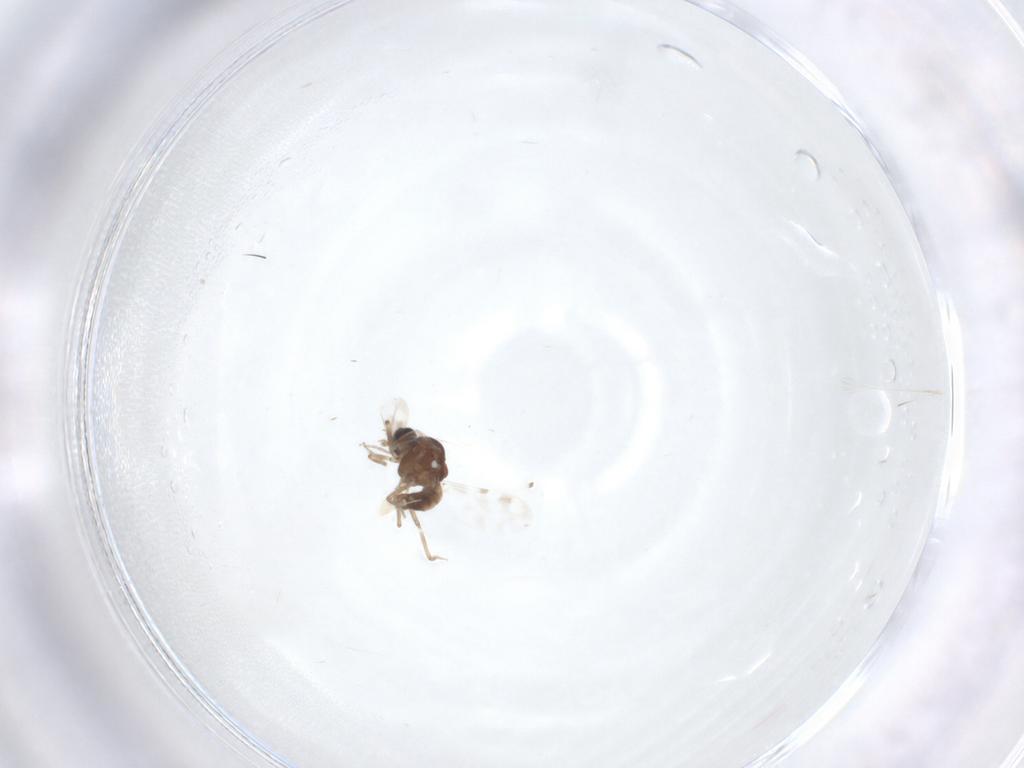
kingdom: Animalia
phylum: Arthropoda
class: Insecta
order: Diptera
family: Ceratopogonidae
